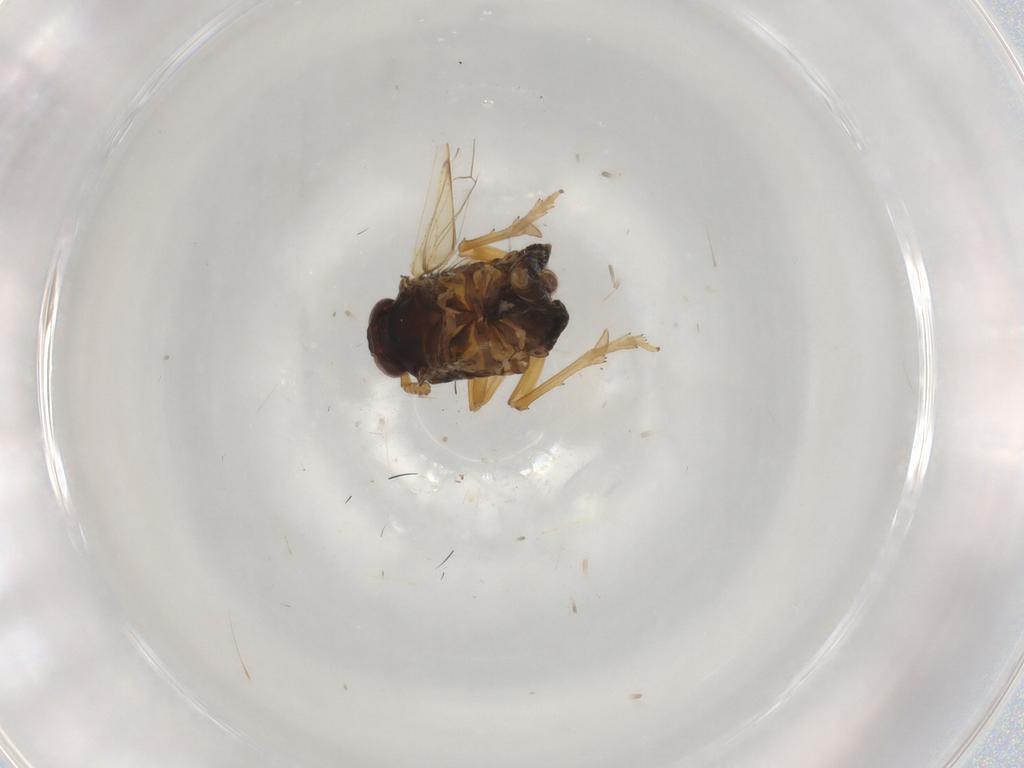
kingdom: Animalia
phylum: Arthropoda
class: Insecta
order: Hemiptera
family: Delphacidae
